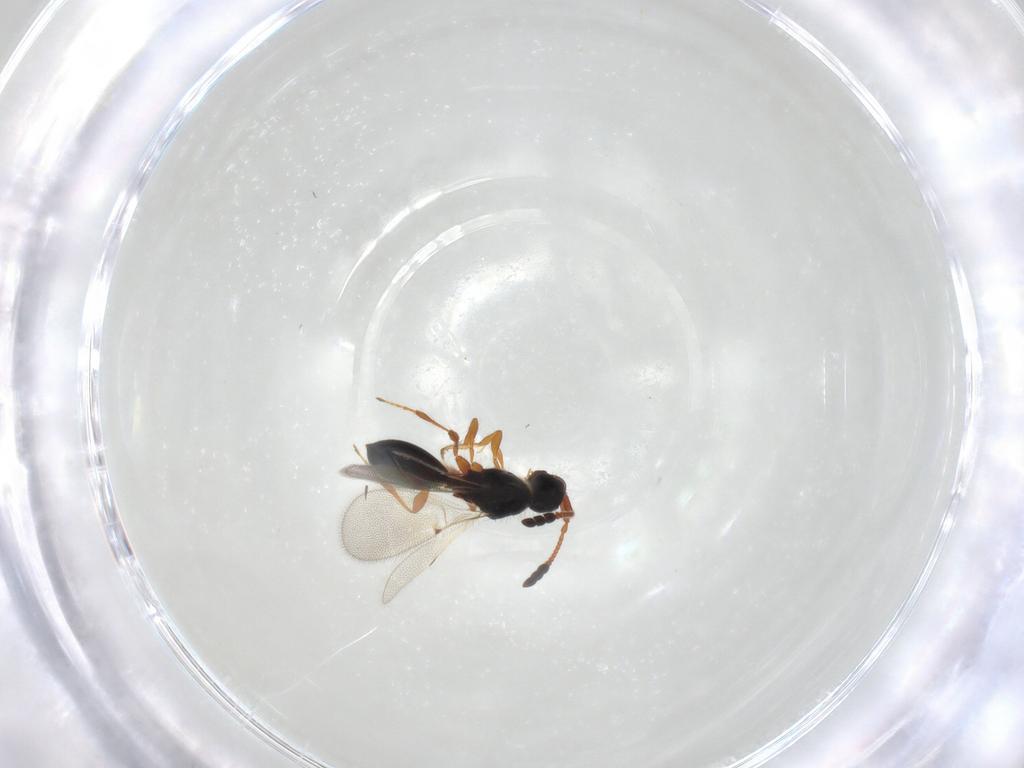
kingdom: Animalia
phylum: Arthropoda
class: Insecta
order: Hymenoptera
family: Diapriidae
